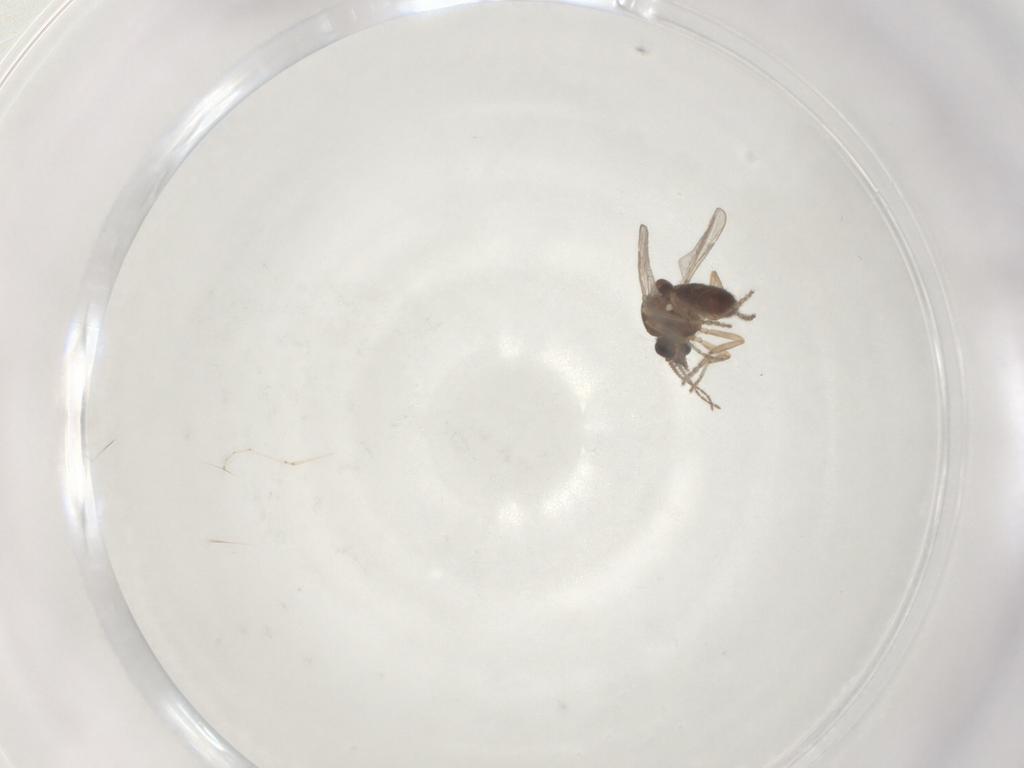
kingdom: Animalia
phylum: Arthropoda
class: Insecta
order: Diptera
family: Ceratopogonidae
